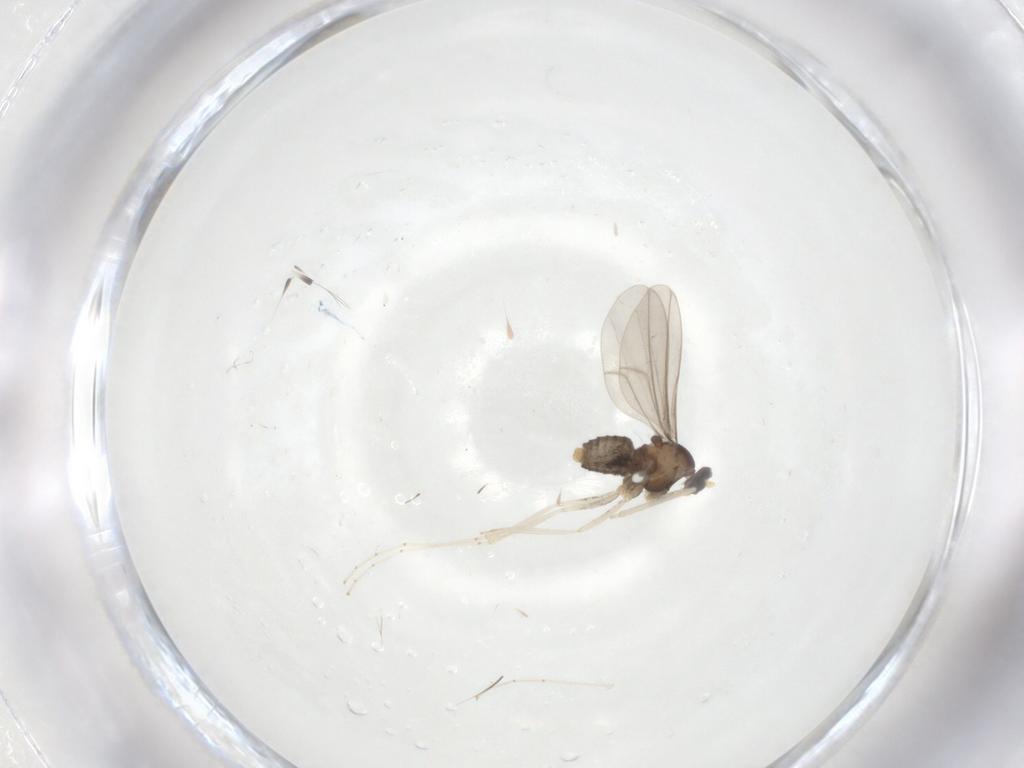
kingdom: Animalia
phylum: Arthropoda
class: Insecta
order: Diptera
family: Cecidomyiidae
